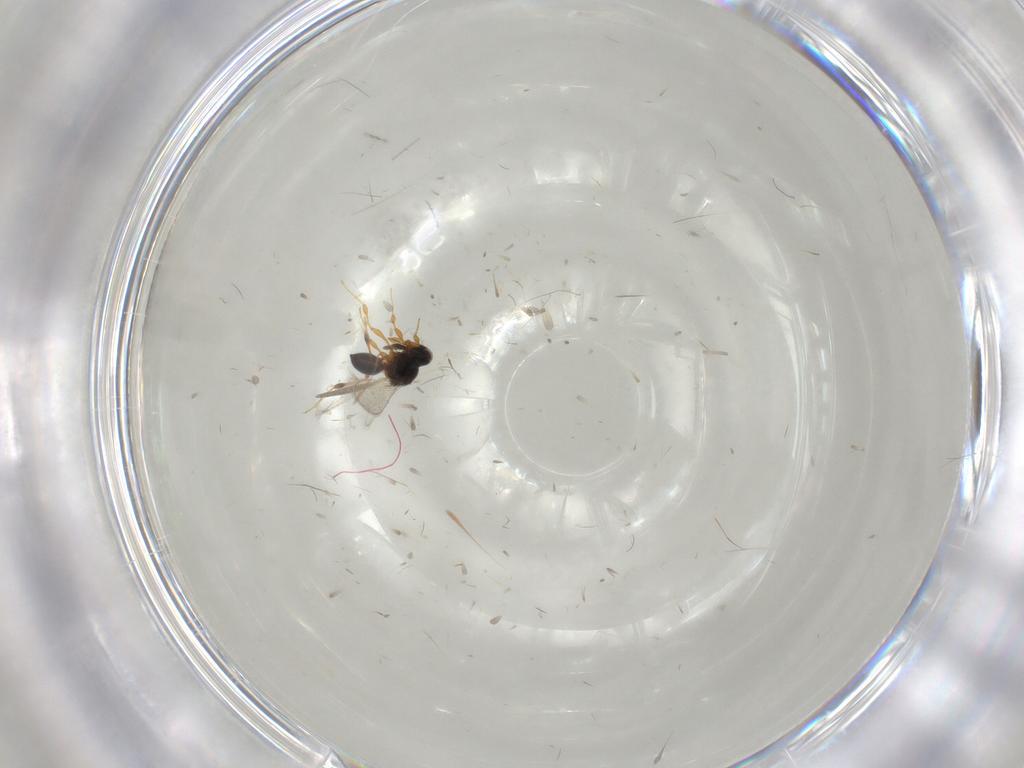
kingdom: Animalia
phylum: Arthropoda
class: Insecta
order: Hymenoptera
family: Platygastridae
